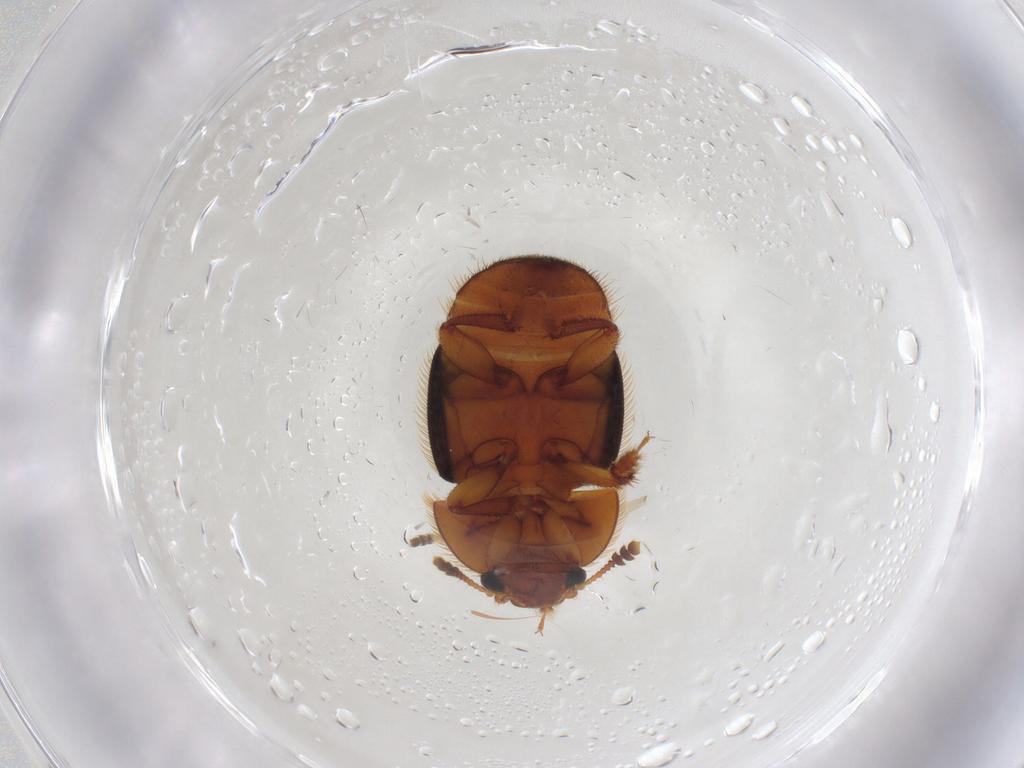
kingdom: Animalia
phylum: Arthropoda
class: Insecta
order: Coleoptera
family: Nitidulidae
